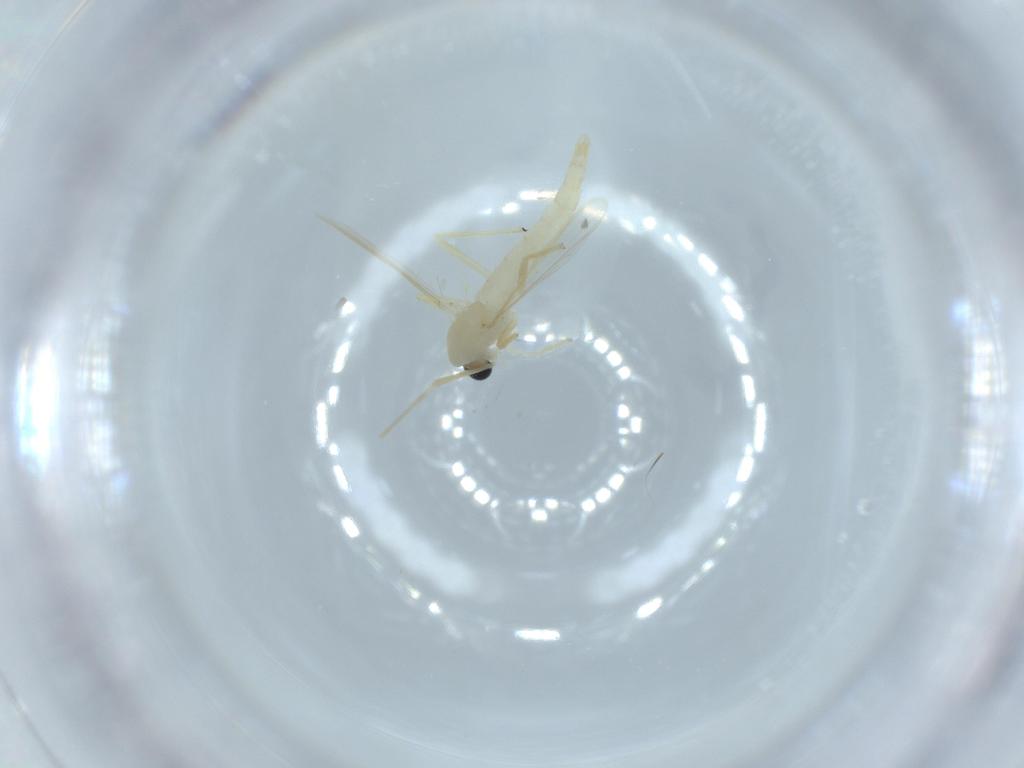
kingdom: Animalia
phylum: Arthropoda
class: Insecta
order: Diptera
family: Chironomidae
